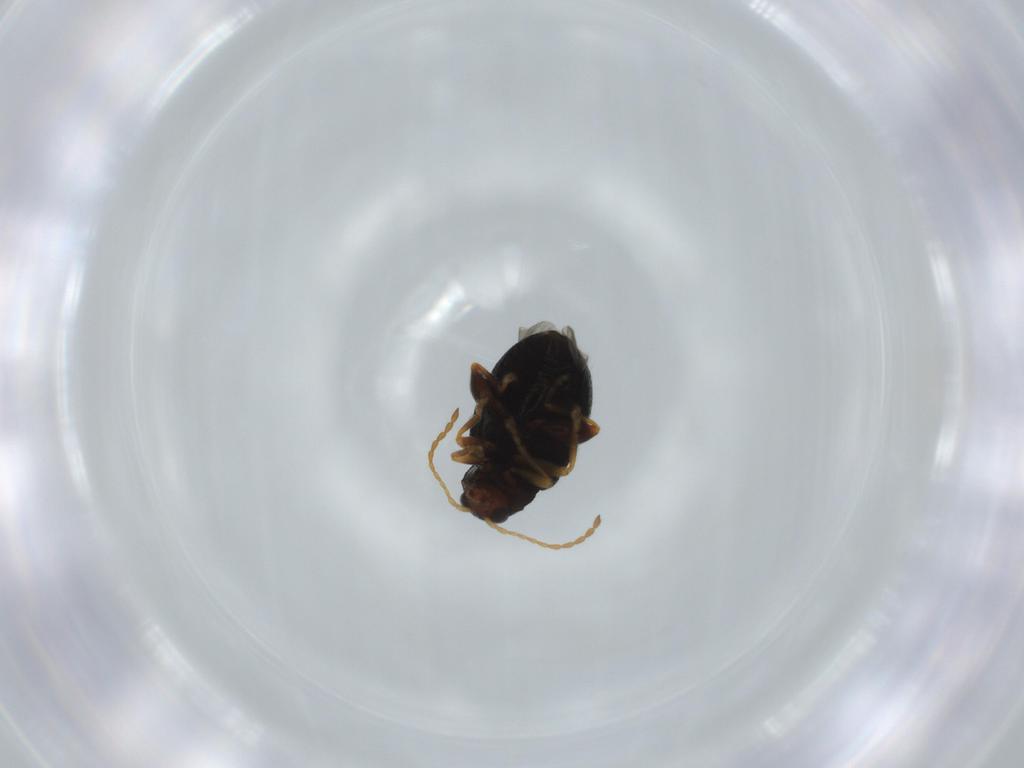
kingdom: Animalia
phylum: Arthropoda
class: Insecta
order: Coleoptera
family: Chrysomelidae
